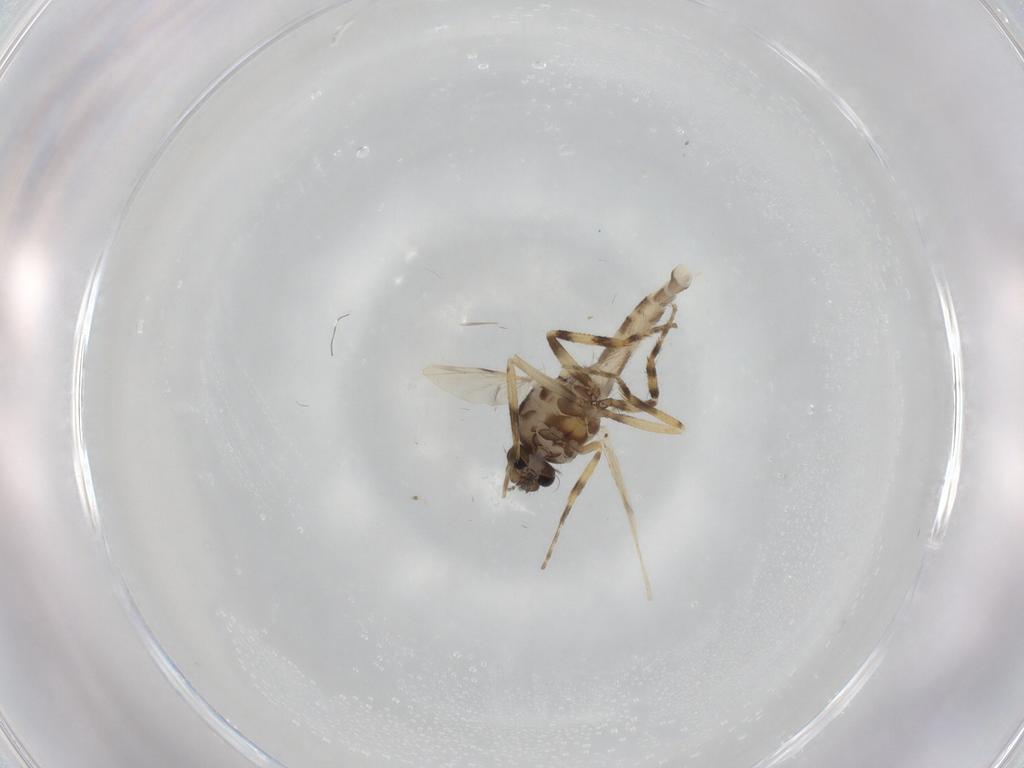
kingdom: Animalia
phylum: Arthropoda
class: Insecta
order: Diptera
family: Ceratopogonidae
